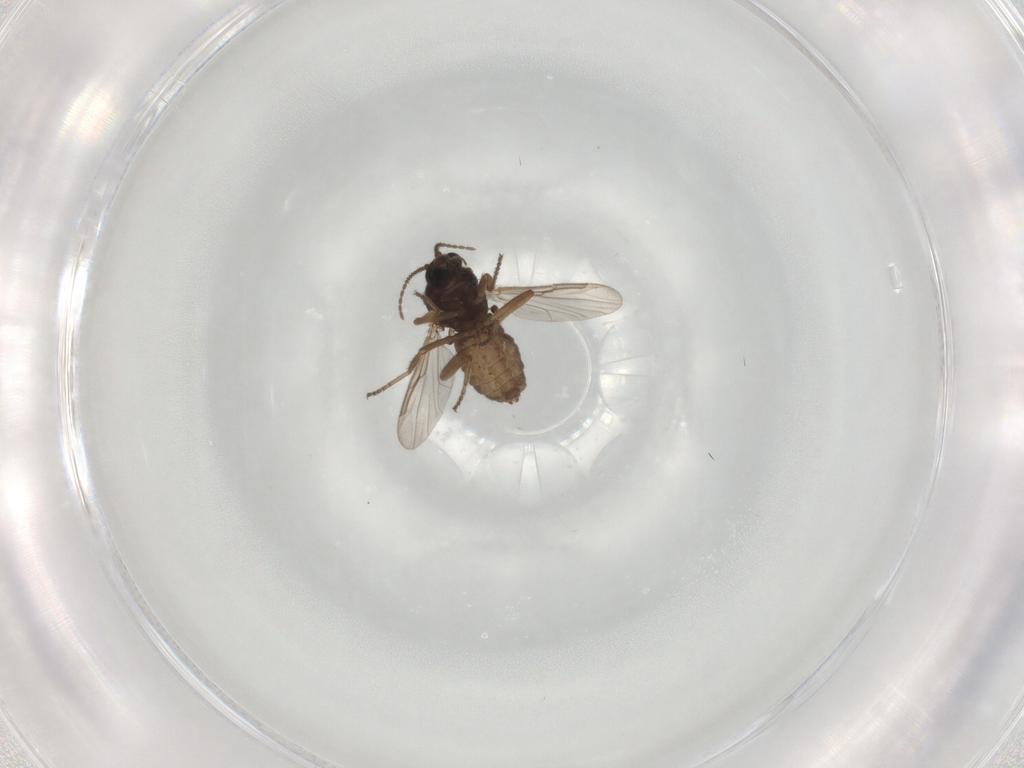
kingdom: Animalia
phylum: Arthropoda
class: Insecta
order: Diptera
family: Ceratopogonidae
